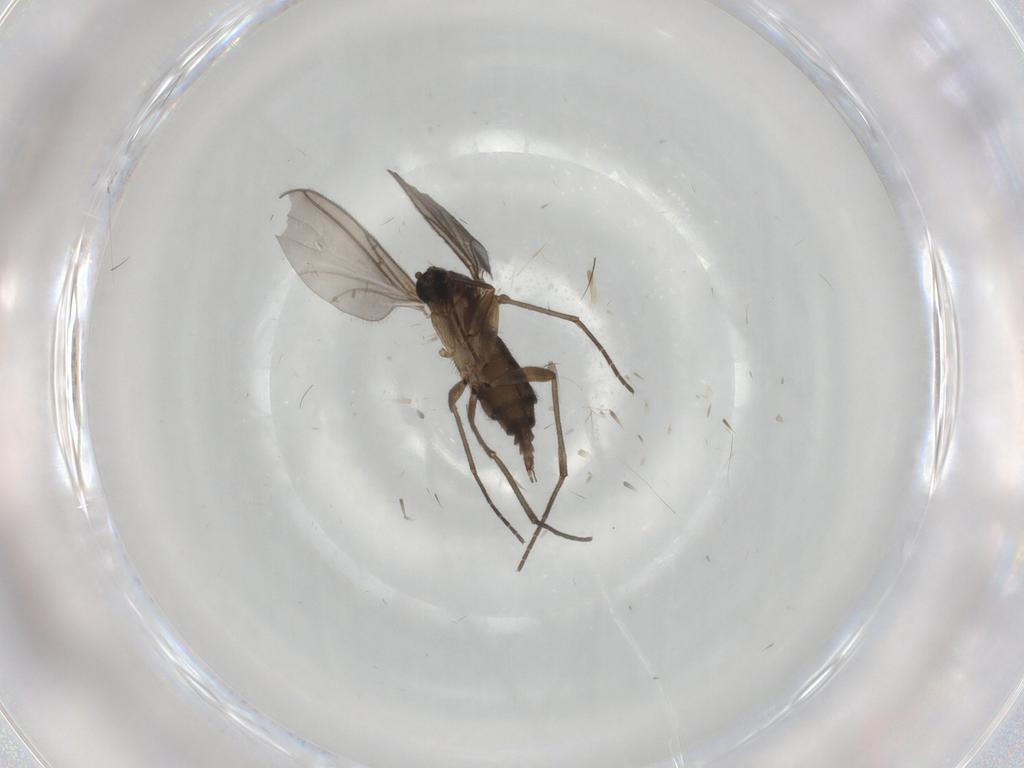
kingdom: Animalia
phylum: Arthropoda
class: Insecta
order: Diptera
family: Sciaridae
